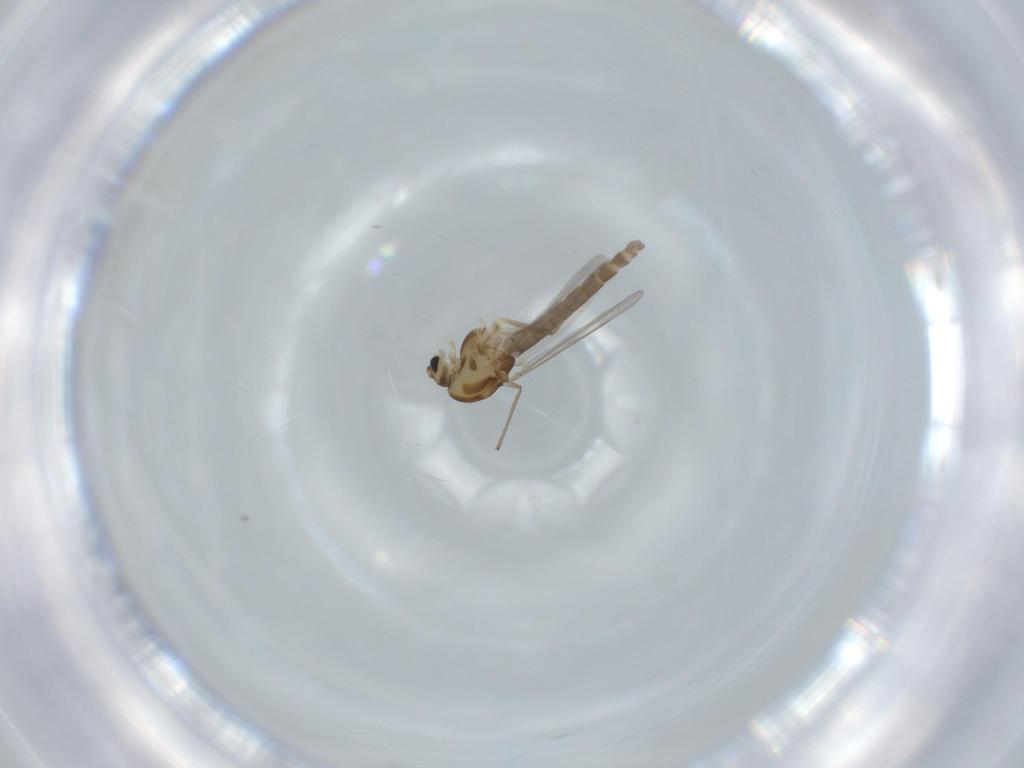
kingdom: Animalia
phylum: Arthropoda
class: Insecta
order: Diptera
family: Chironomidae
